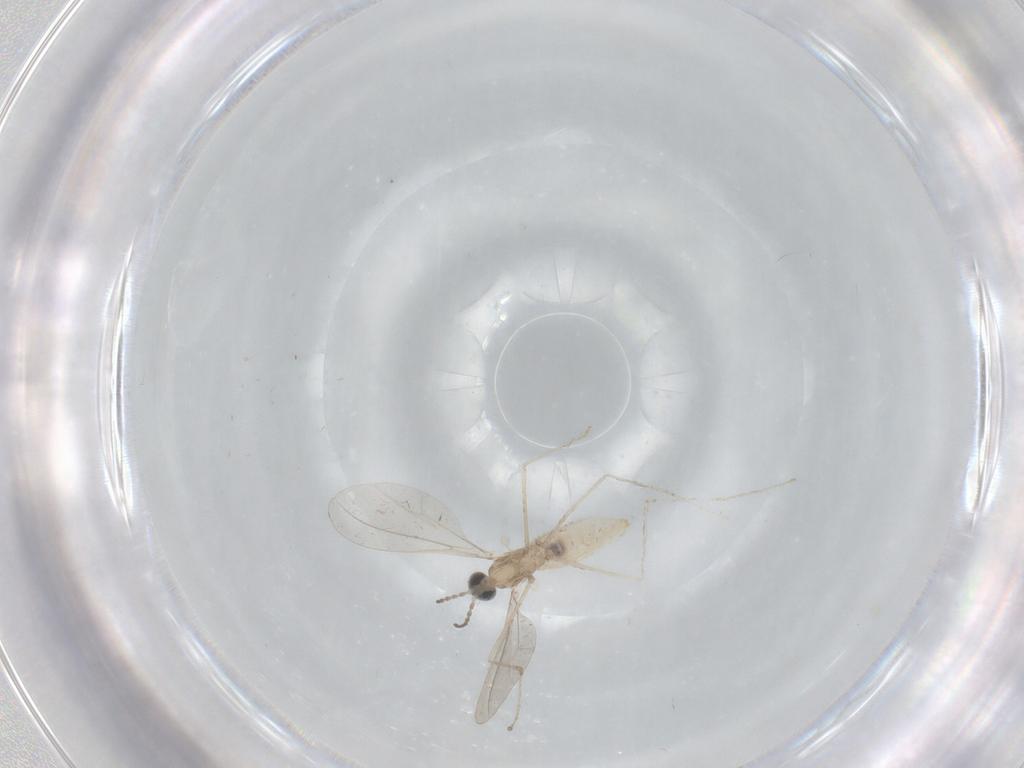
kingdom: Animalia
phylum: Arthropoda
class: Insecta
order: Diptera
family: Cecidomyiidae
